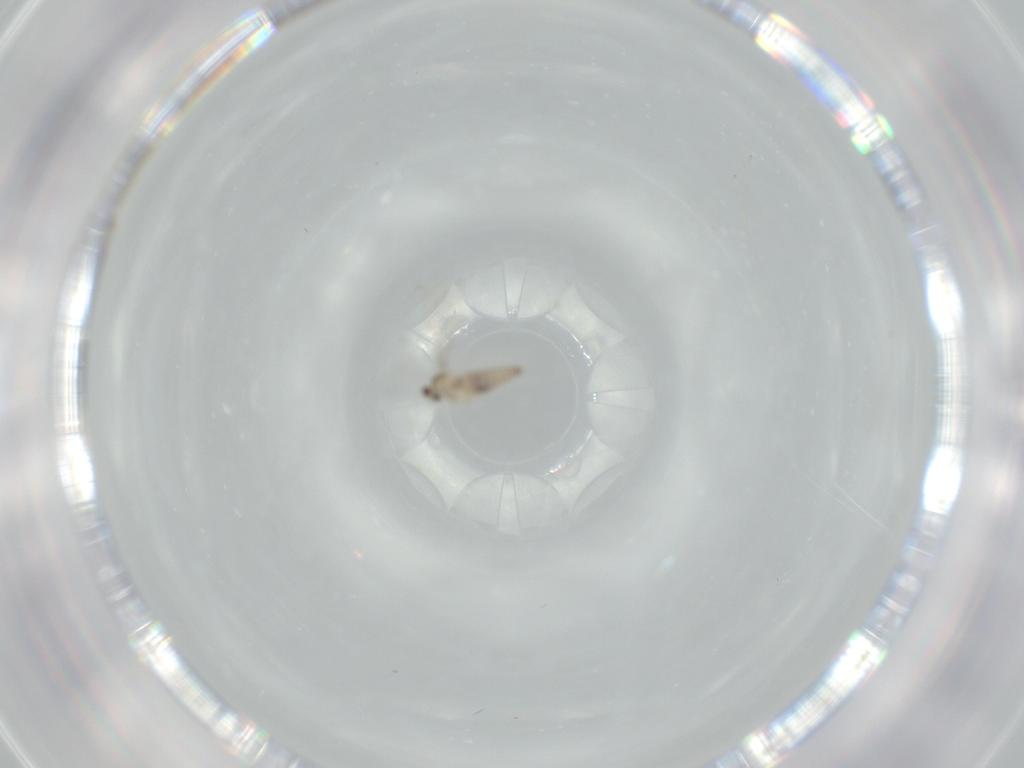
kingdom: Animalia
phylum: Arthropoda
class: Insecta
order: Diptera
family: Cecidomyiidae
